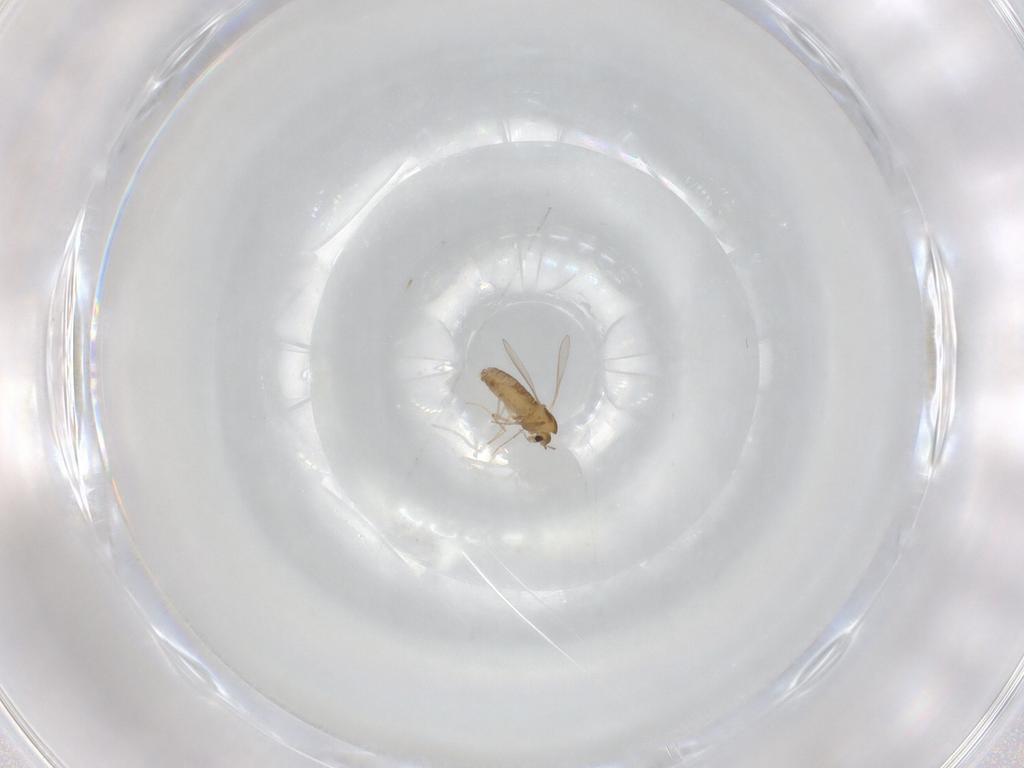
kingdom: Animalia
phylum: Arthropoda
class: Insecta
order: Diptera
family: Chironomidae
